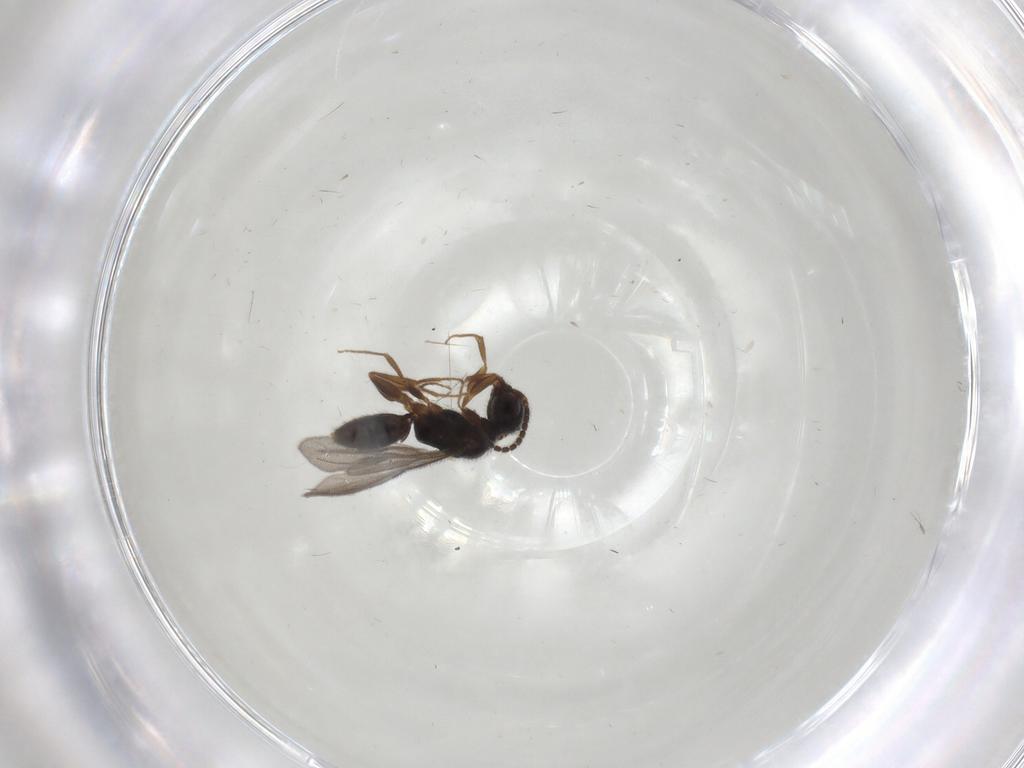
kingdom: Animalia
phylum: Arthropoda
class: Insecta
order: Hymenoptera
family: Bethylidae
